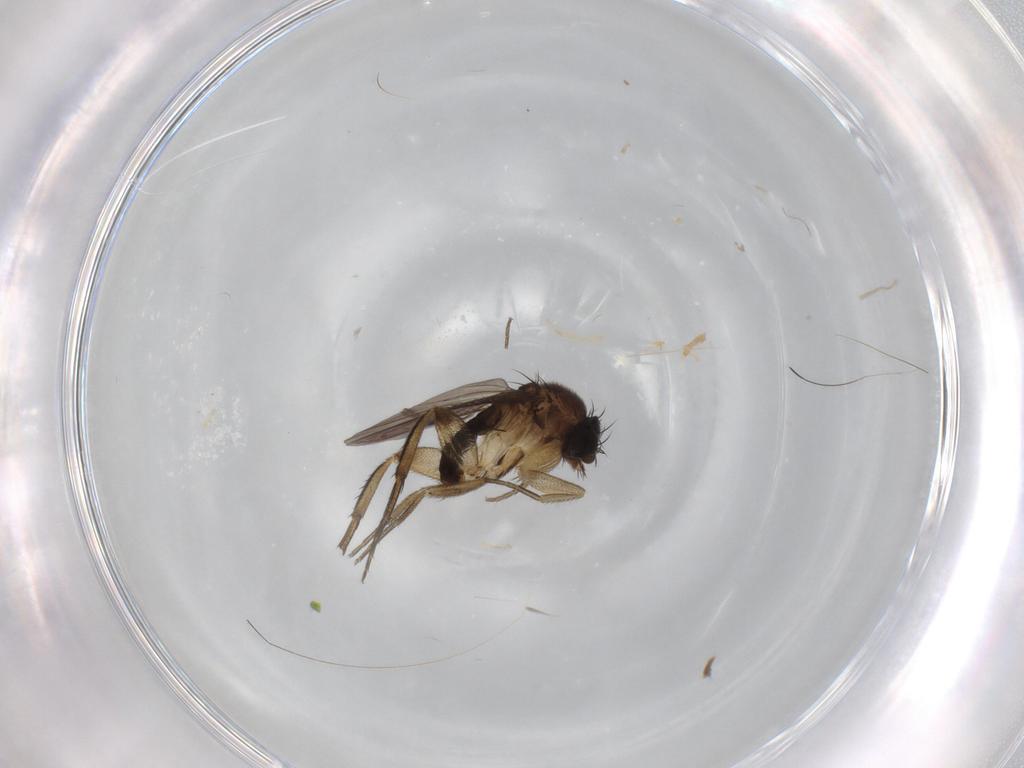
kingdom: Animalia
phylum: Arthropoda
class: Insecta
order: Diptera
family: Phoridae
